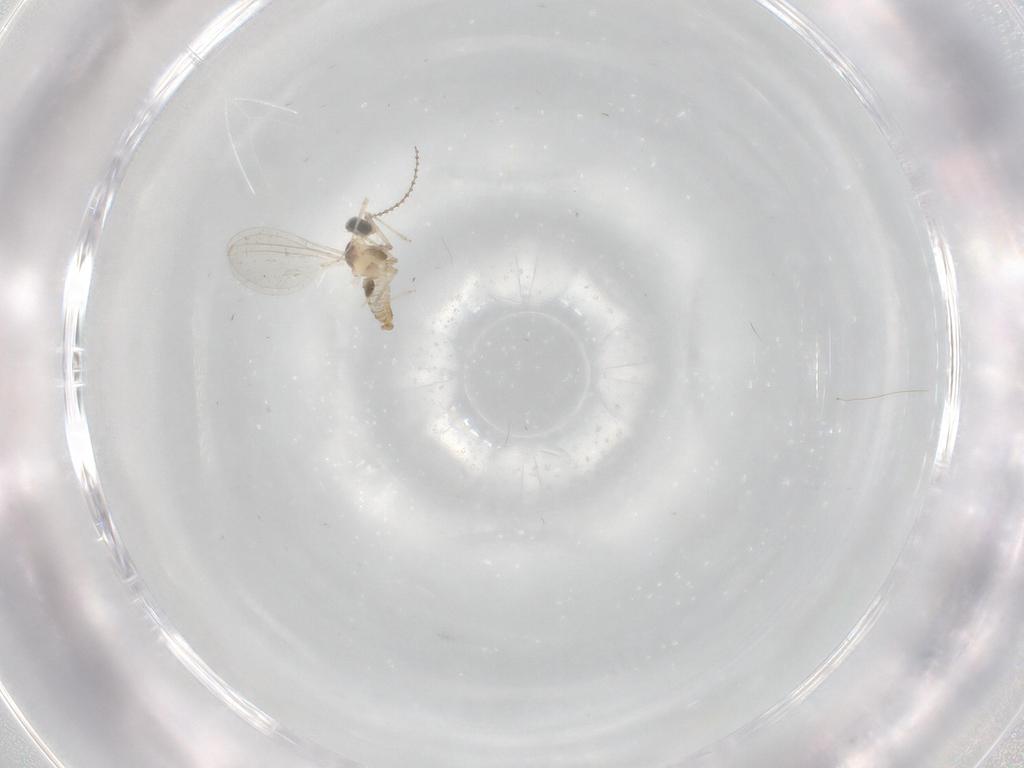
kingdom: Animalia
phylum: Arthropoda
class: Insecta
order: Diptera
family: Cecidomyiidae
